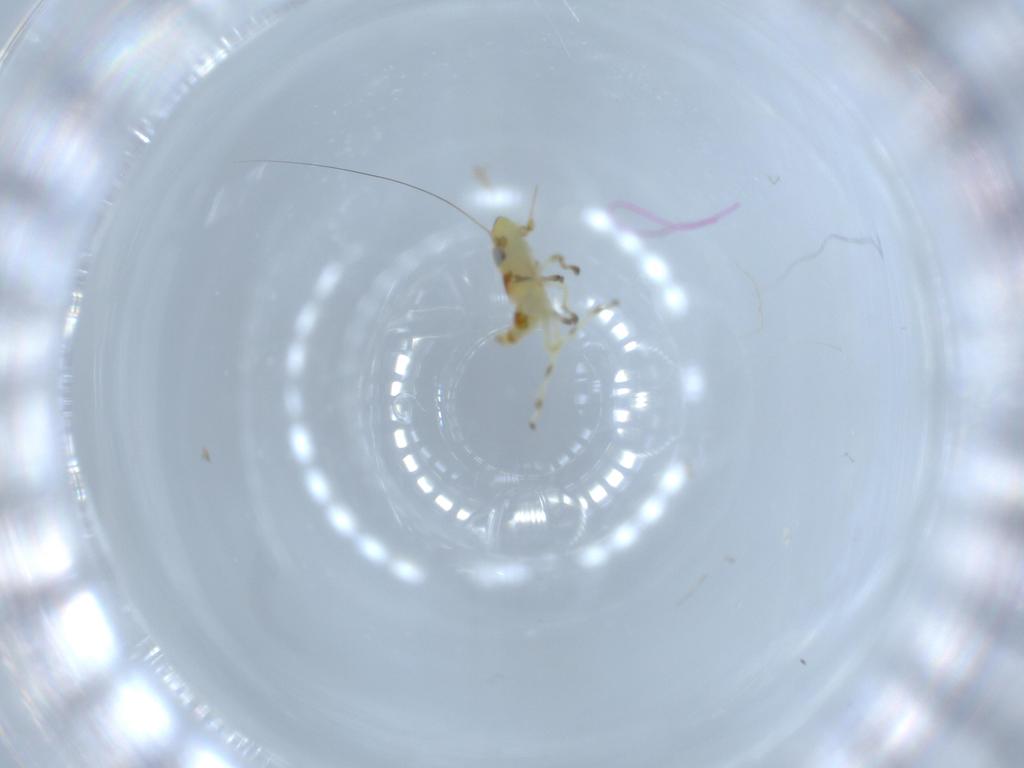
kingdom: Animalia
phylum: Arthropoda
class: Insecta
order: Hemiptera
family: Cicadellidae
